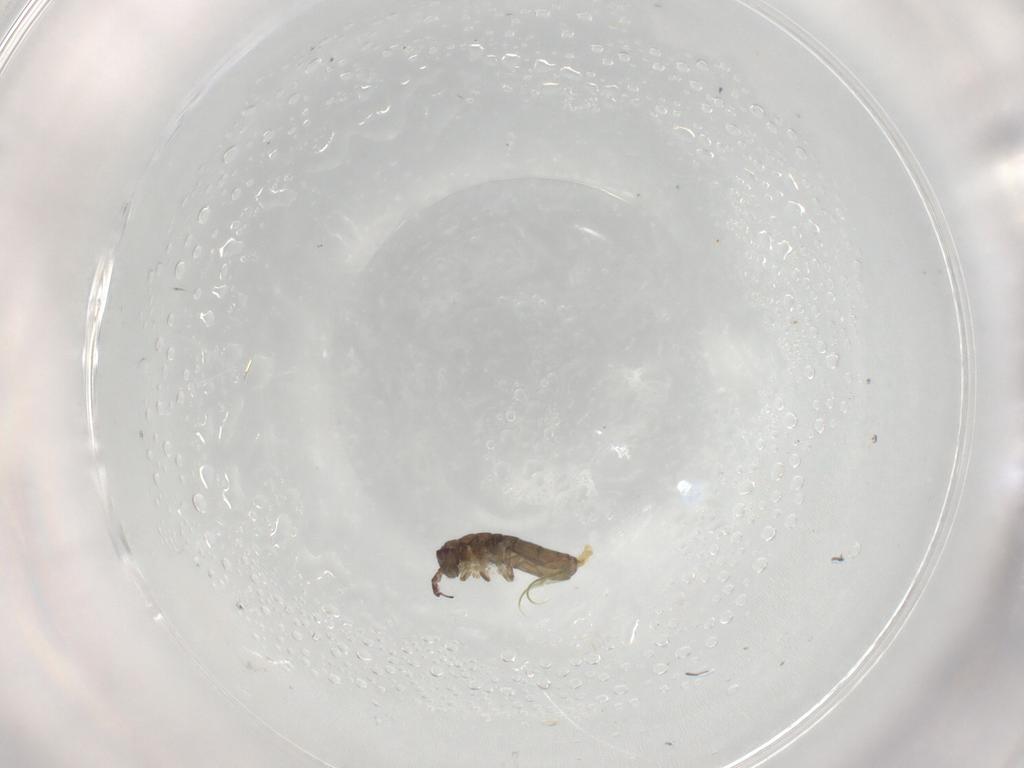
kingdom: Animalia
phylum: Arthropoda
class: Collembola
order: Entomobryomorpha
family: Isotomidae
